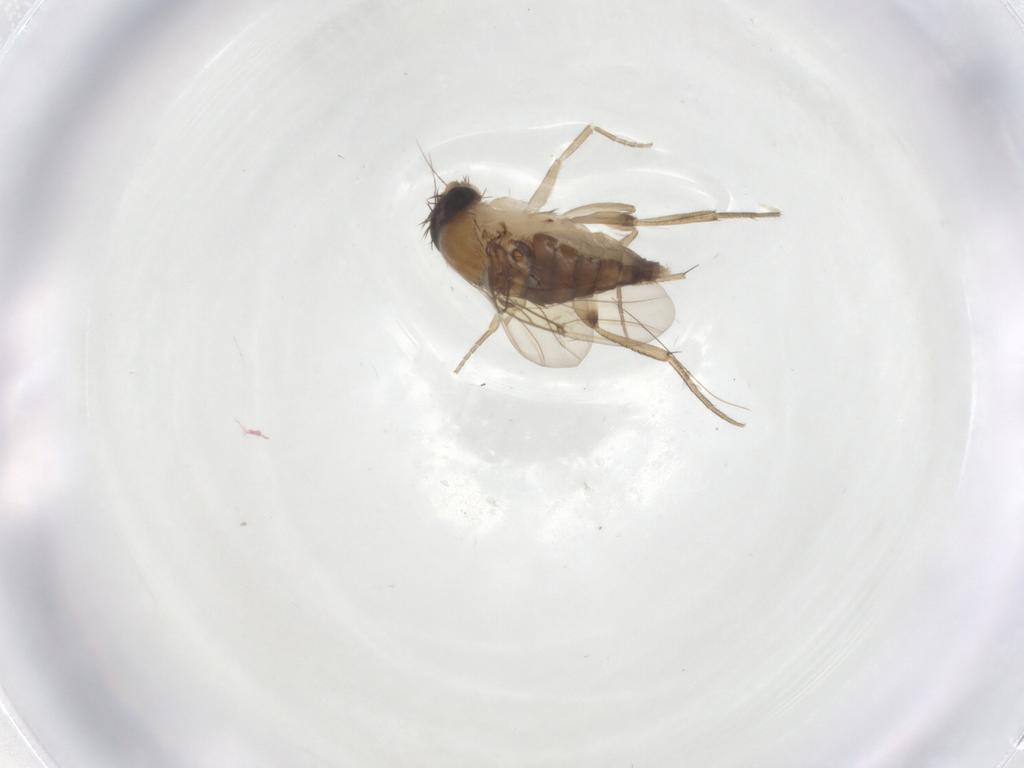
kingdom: Animalia
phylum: Arthropoda
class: Insecta
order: Diptera
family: Phoridae
